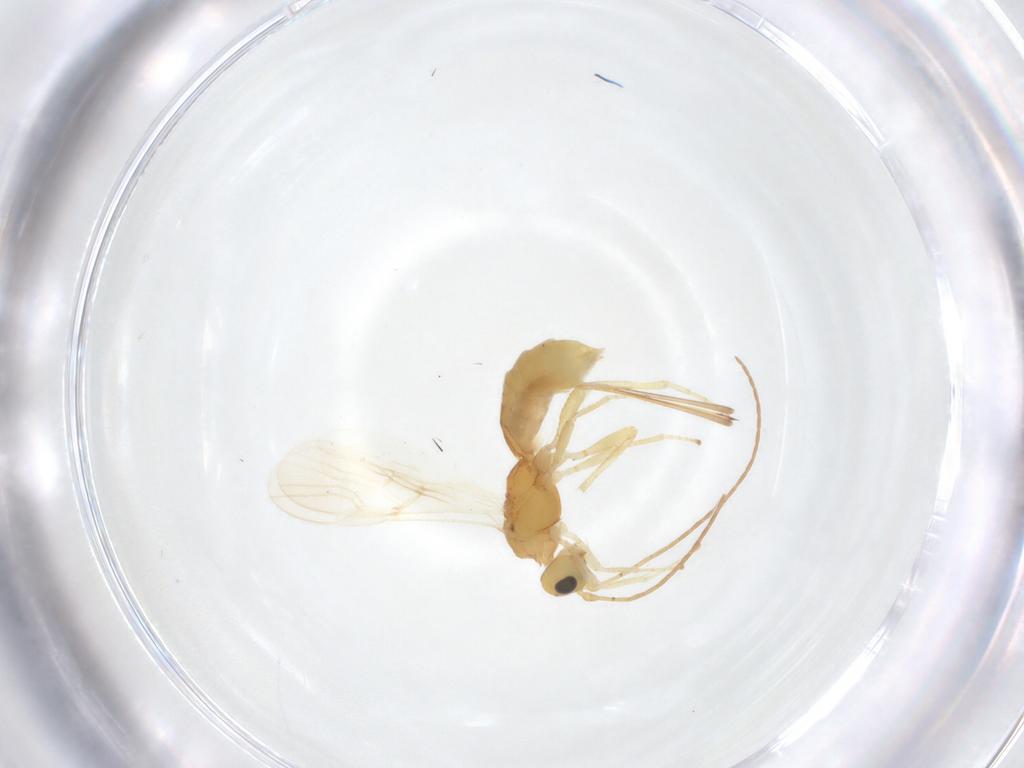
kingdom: Animalia
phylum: Arthropoda
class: Insecta
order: Hymenoptera
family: Braconidae
